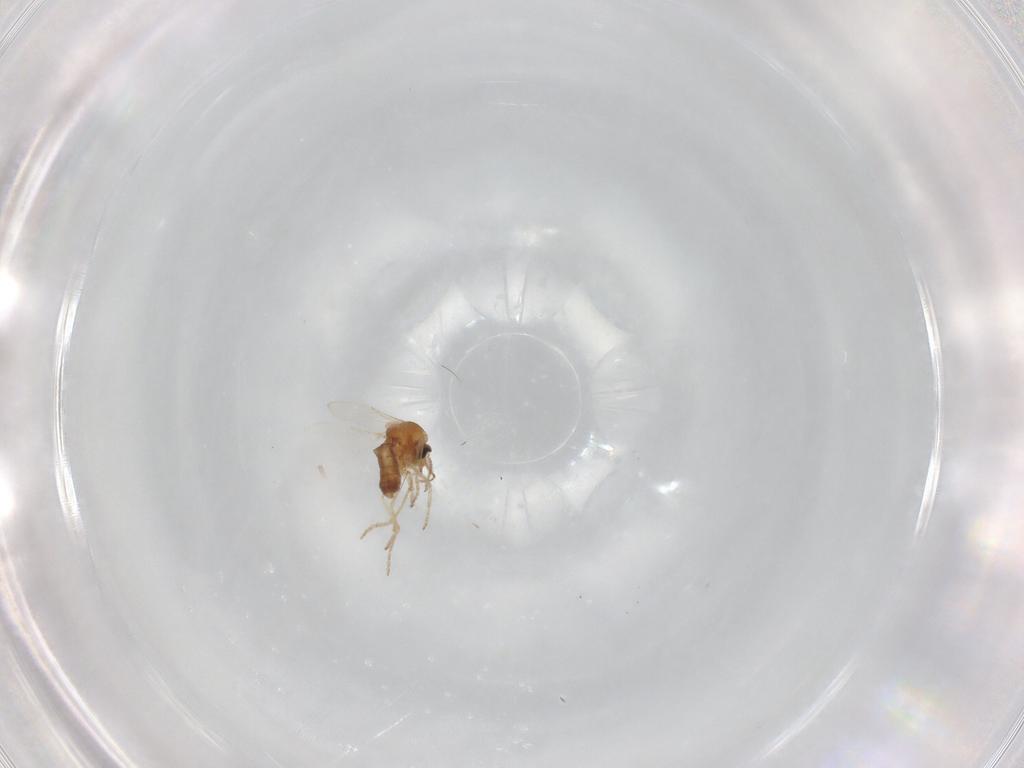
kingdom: Animalia
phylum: Arthropoda
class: Insecta
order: Diptera
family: Ceratopogonidae
